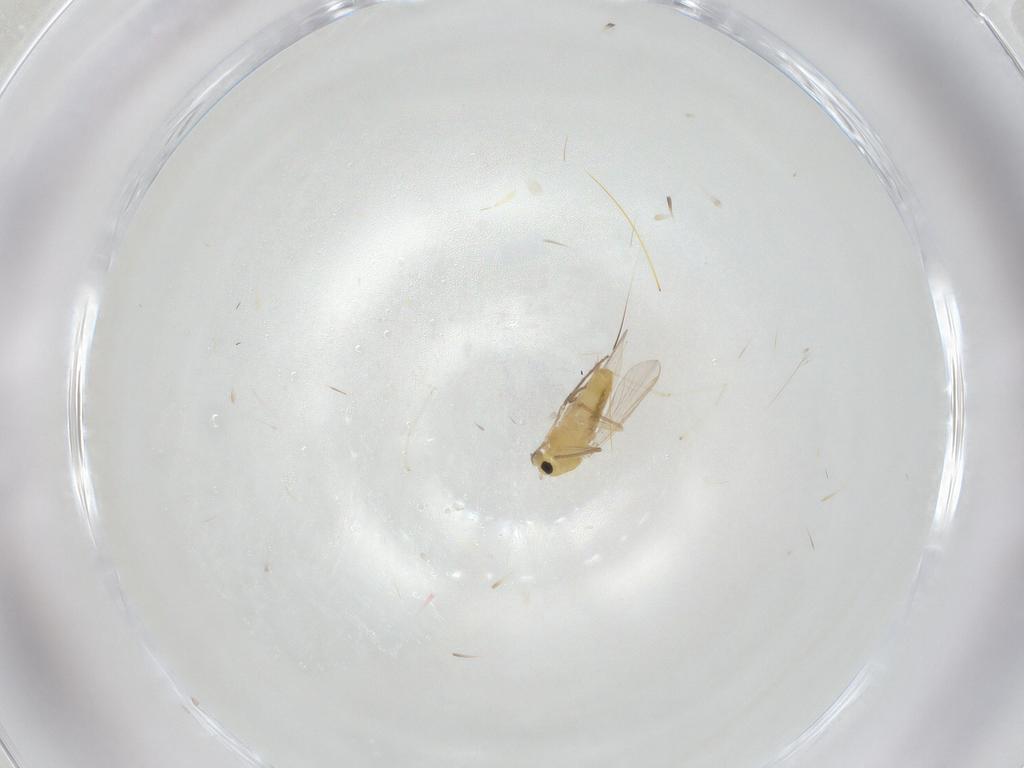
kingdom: Animalia
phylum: Arthropoda
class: Insecta
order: Diptera
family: Chironomidae
